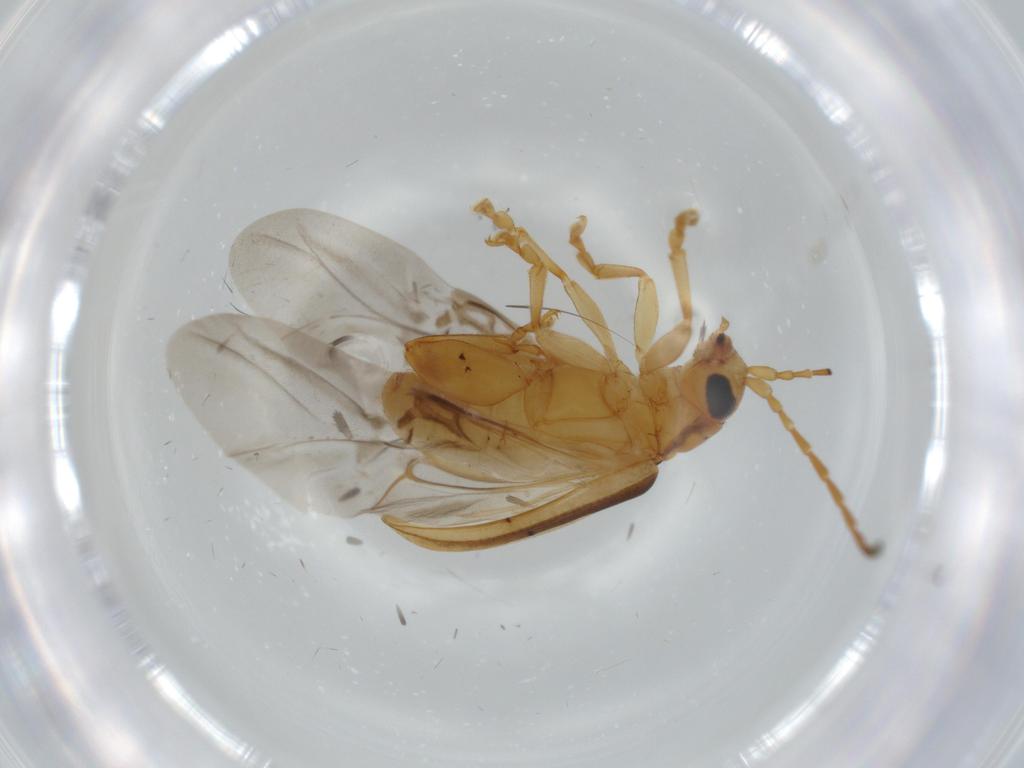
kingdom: Animalia
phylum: Arthropoda
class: Insecta
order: Coleoptera
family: Chrysomelidae
